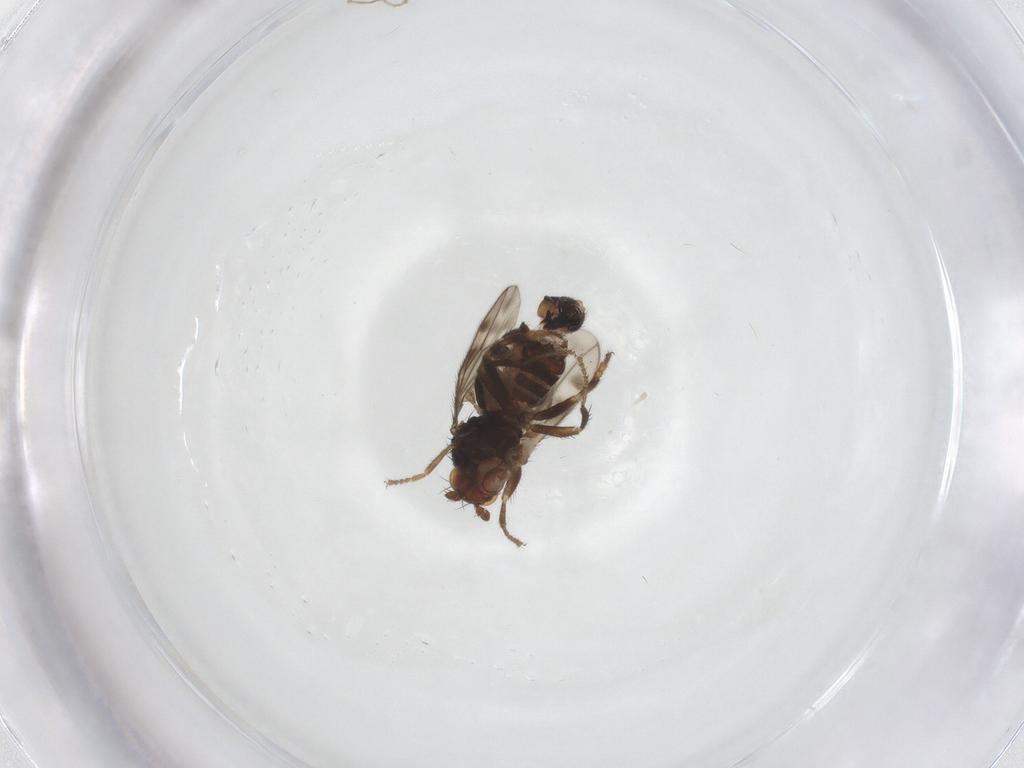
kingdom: Animalia
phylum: Arthropoda
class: Insecta
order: Diptera
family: Sphaeroceridae
